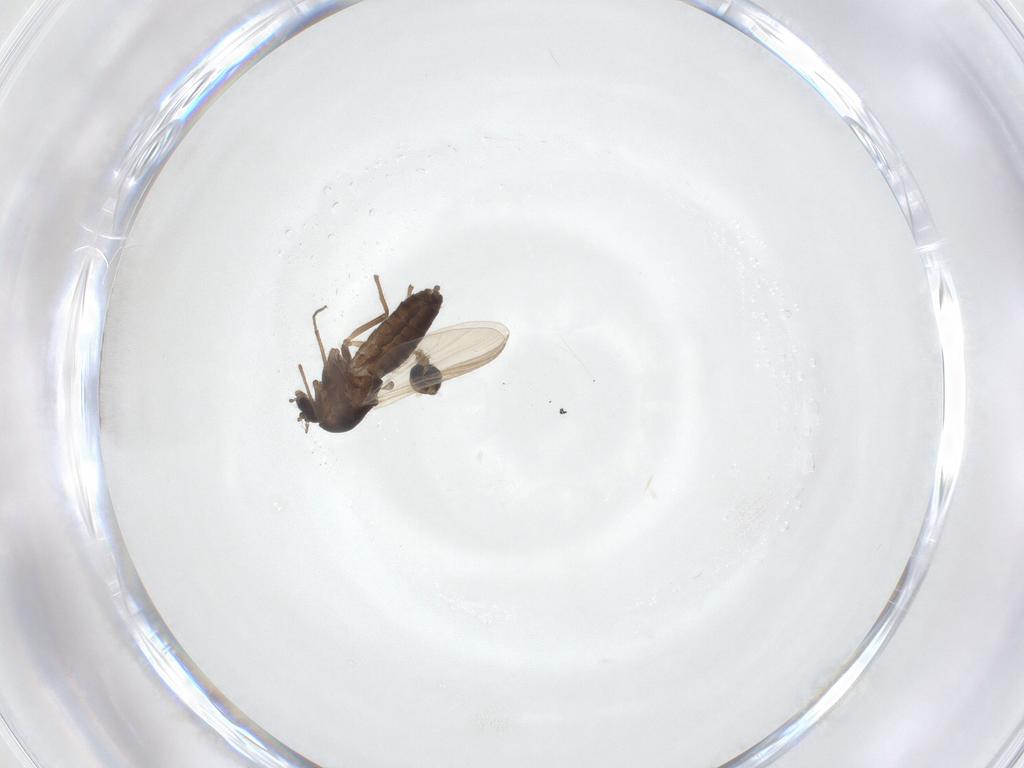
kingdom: Animalia
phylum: Arthropoda
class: Insecta
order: Diptera
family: Chironomidae
